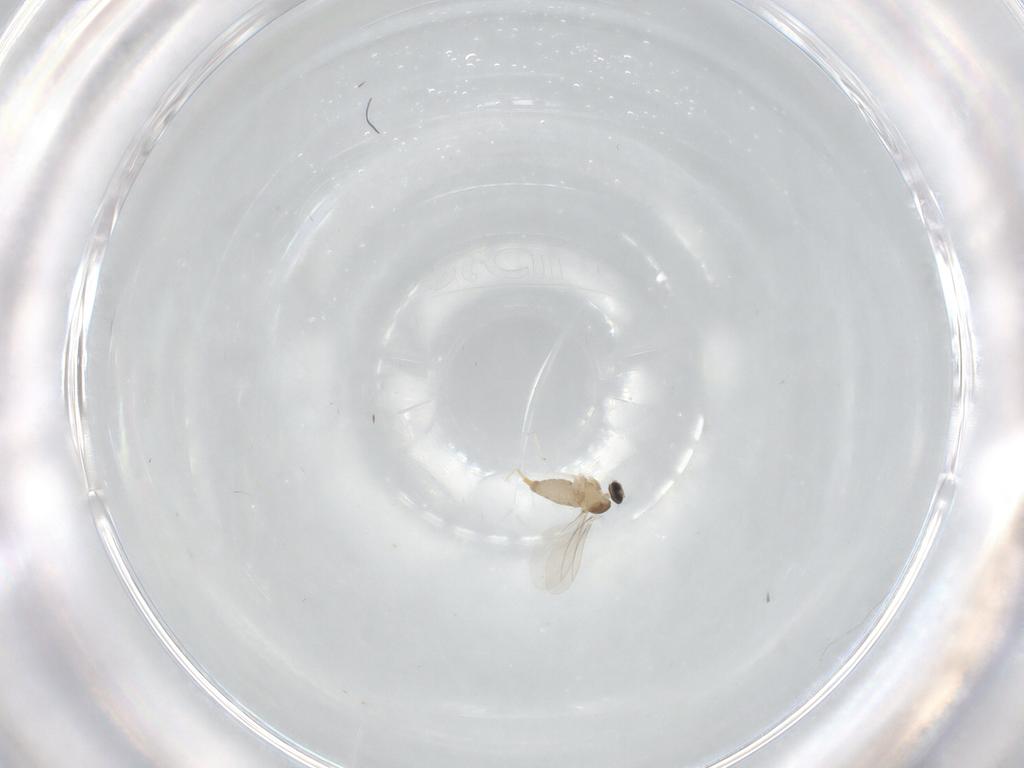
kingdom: Animalia
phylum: Arthropoda
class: Insecta
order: Diptera
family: Cecidomyiidae
